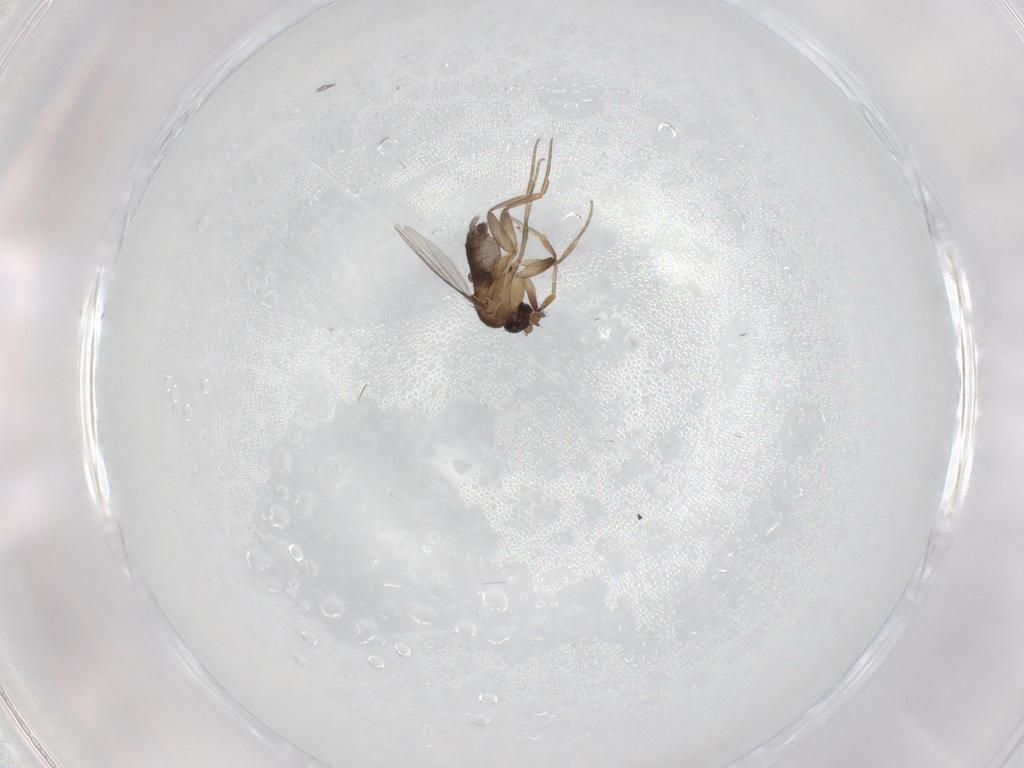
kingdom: Animalia
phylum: Arthropoda
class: Insecta
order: Diptera
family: Phoridae
